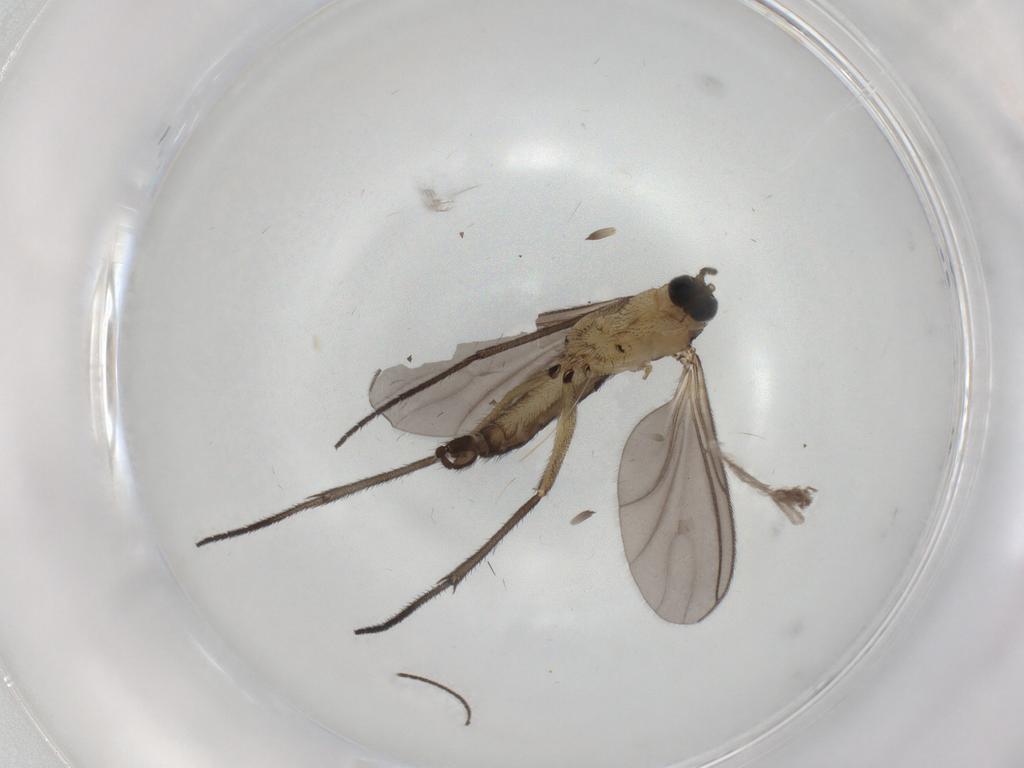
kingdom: Animalia
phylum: Arthropoda
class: Insecta
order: Diptera
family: Sciaridae
